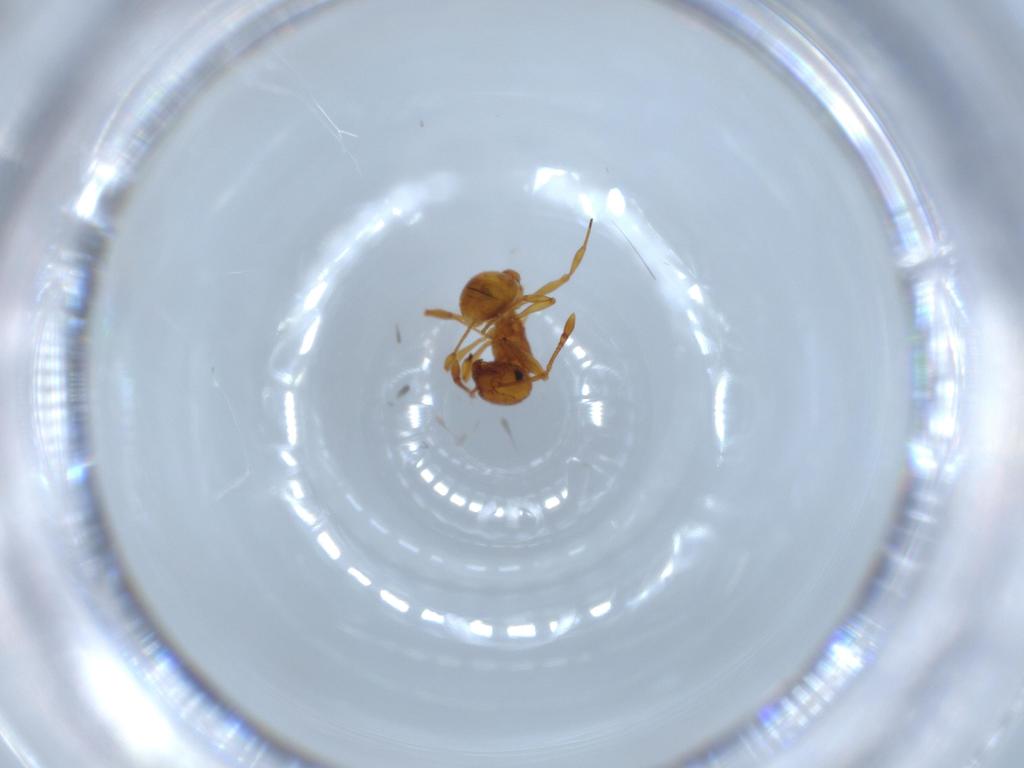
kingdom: Animalia
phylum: Arthropoda
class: Insecta
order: Hymenoptera
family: Formicidae
